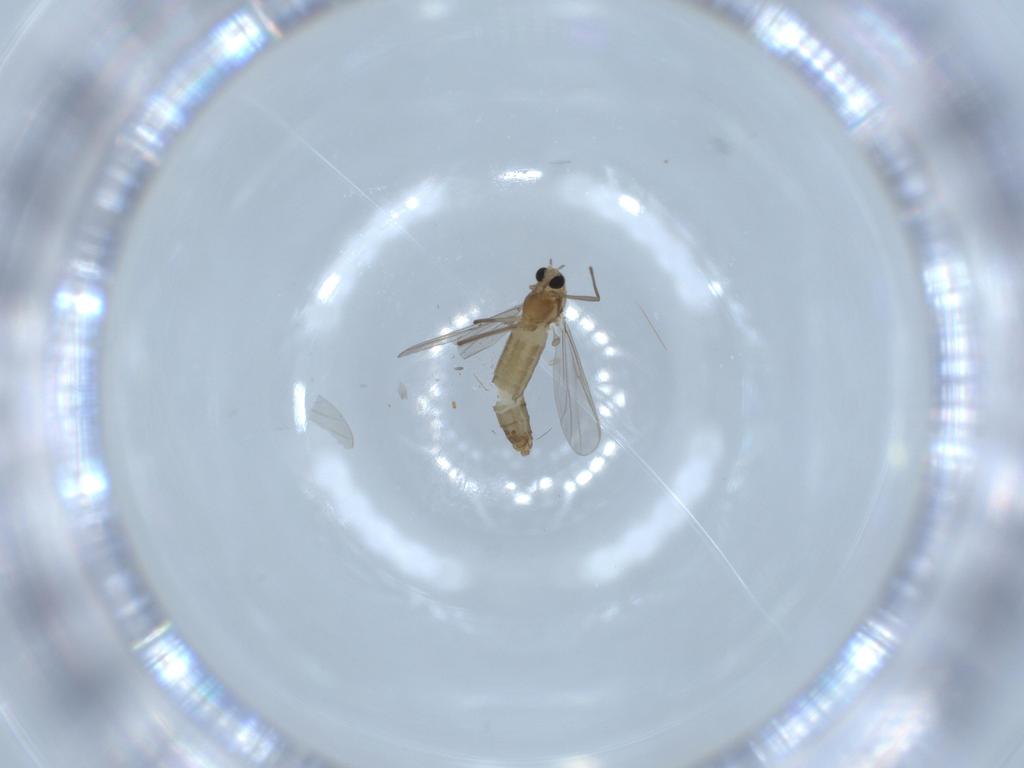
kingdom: Animalia
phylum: Arthropoda
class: Insecta
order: Diptera
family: Chironomidae
